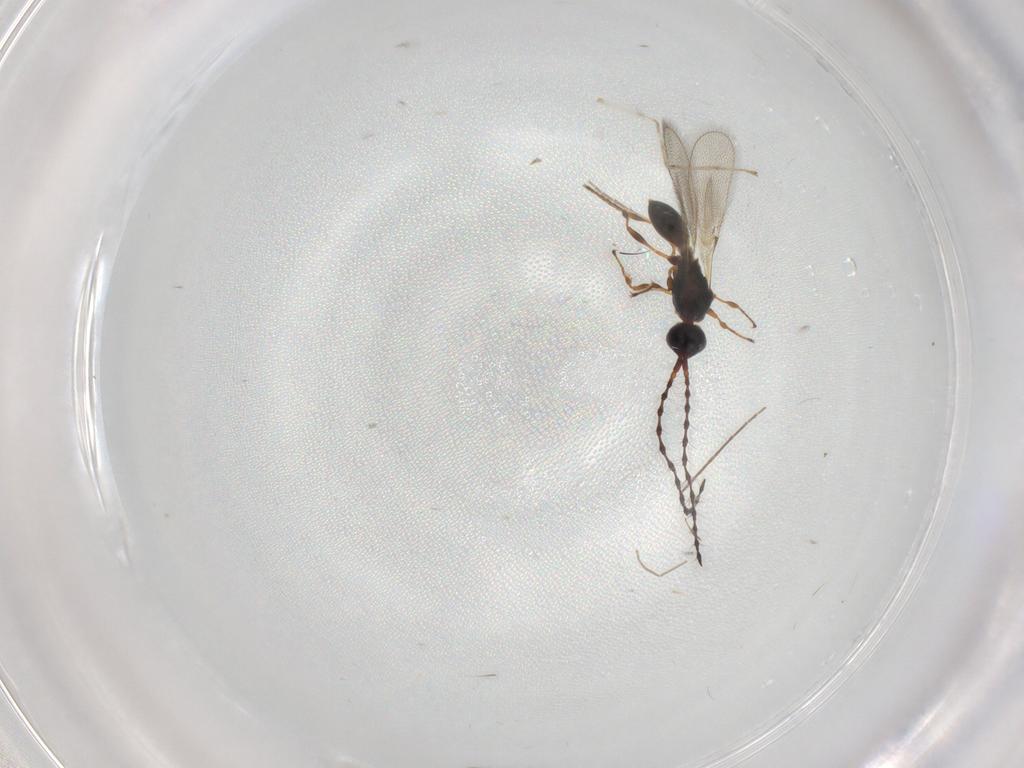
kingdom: Animalia
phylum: Arthropoda
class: Insecta
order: Hymenoptera
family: Diapriidae
